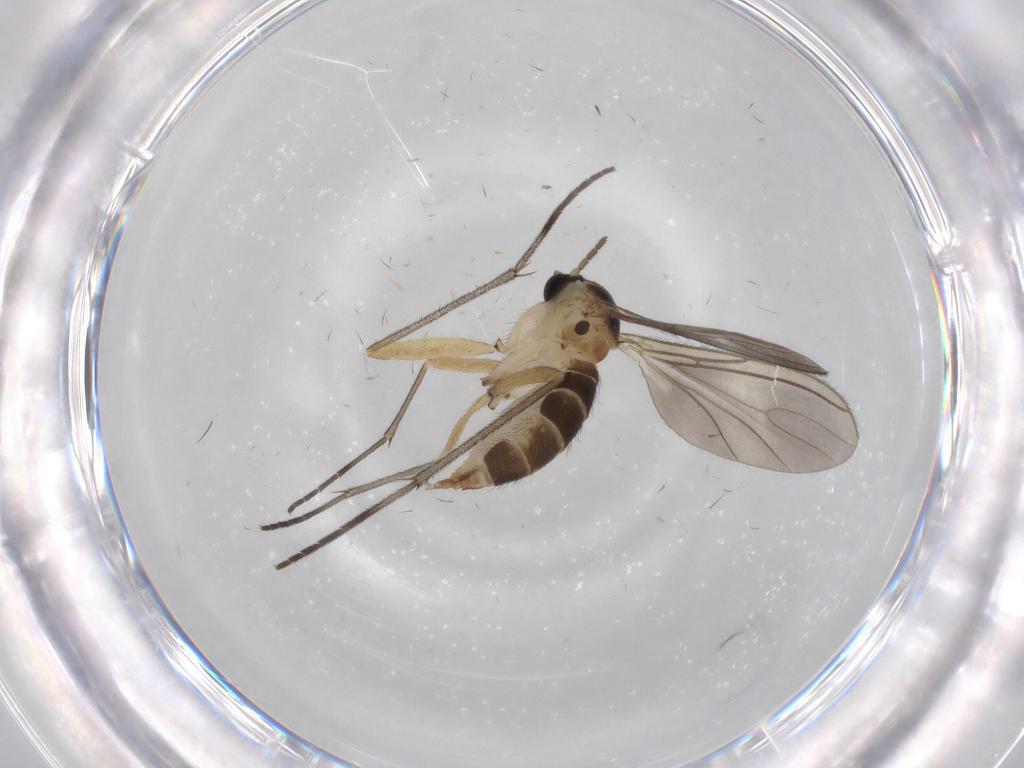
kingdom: Animalia
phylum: Arthropoda
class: Insecta
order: Diptera
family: Sciaridae
